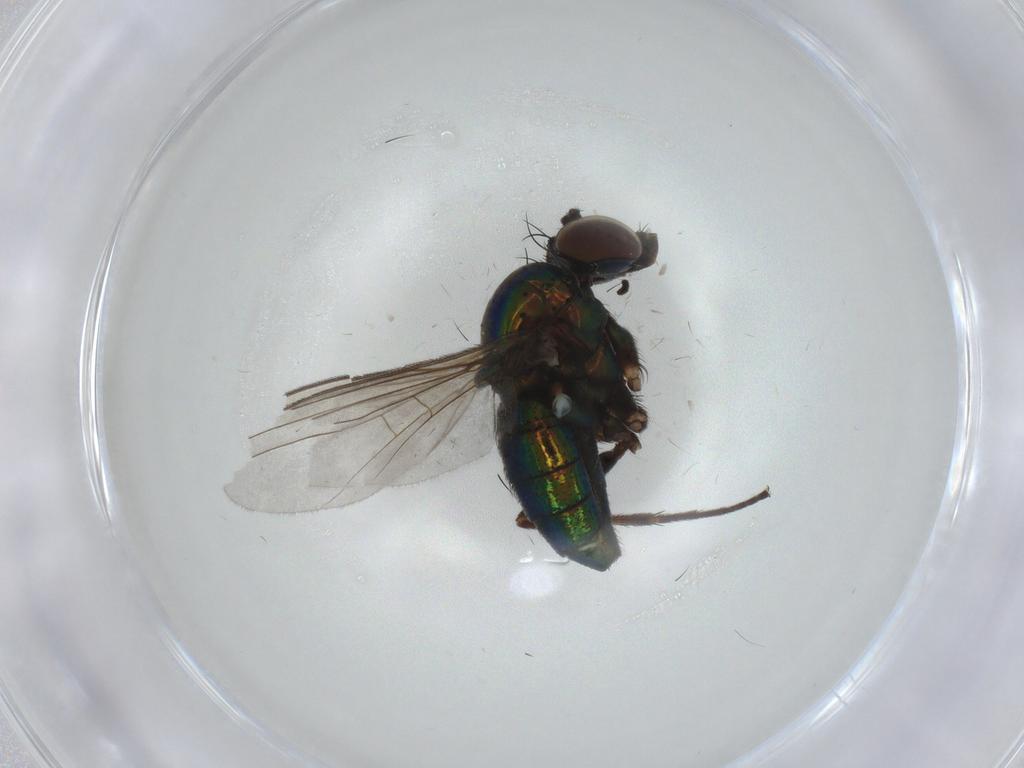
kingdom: Animalia
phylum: Arthropoda
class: Insecta
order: Diptera
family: Dolichopodidae
